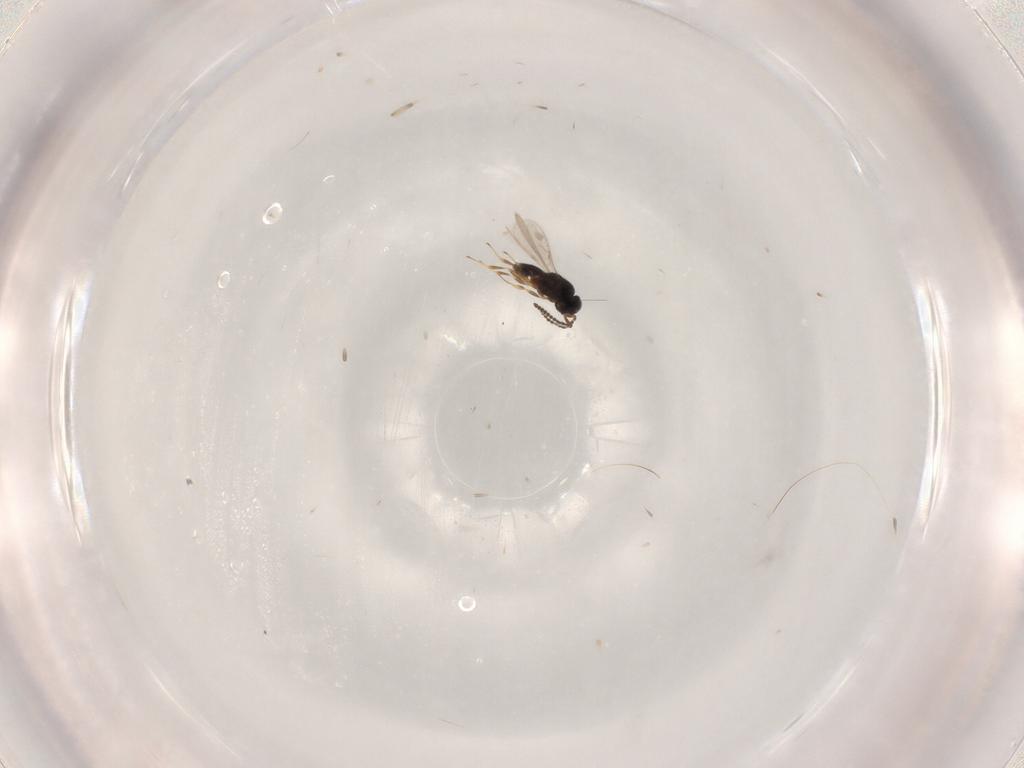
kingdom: Animalia
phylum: Arthropoda
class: Insecta
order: Hymenoptera
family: Scelionidae
